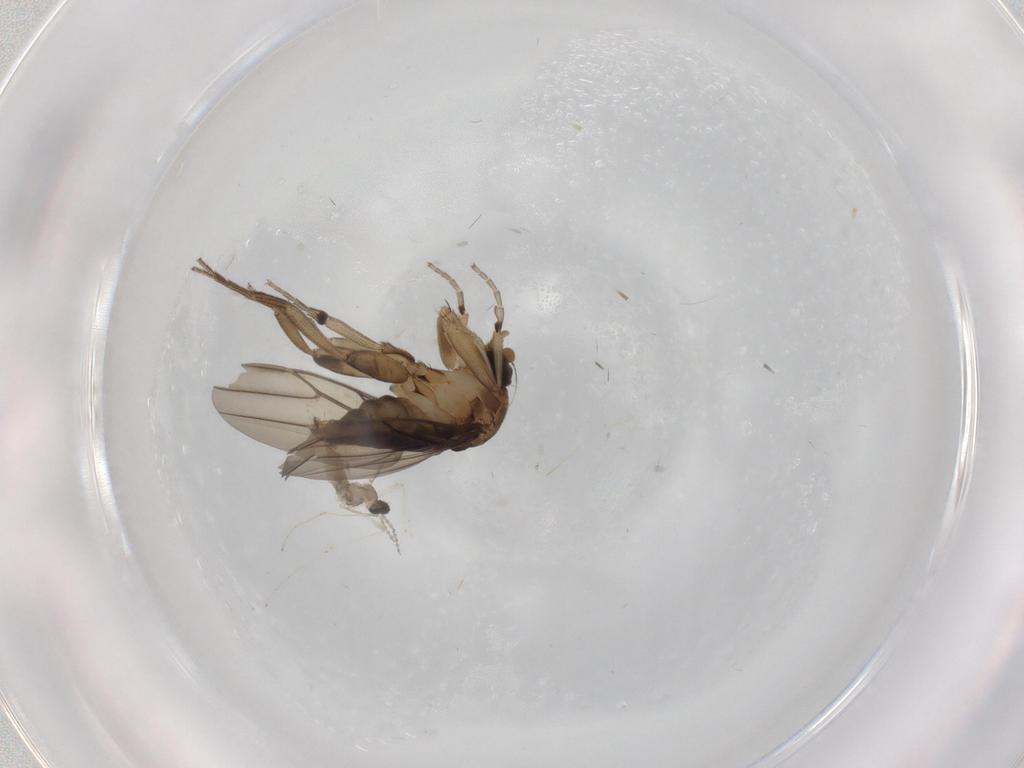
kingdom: Animalia
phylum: Arthropoda
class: Insecta
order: Diptera
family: Cecidomyiidae
